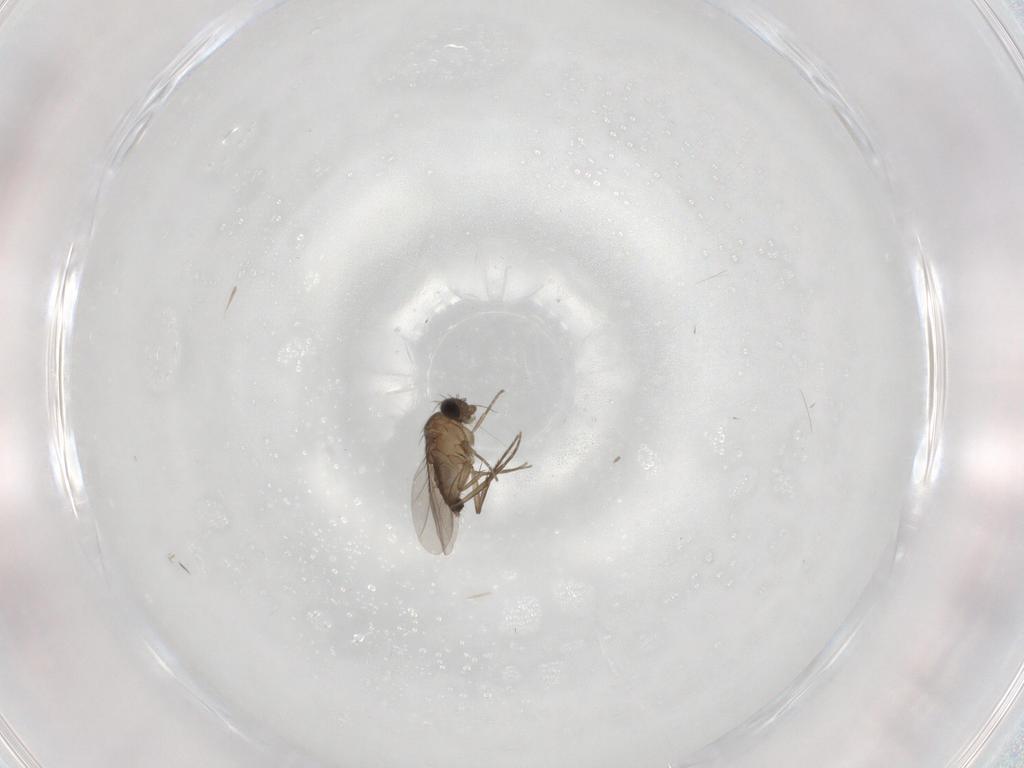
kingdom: Animalia
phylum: Arthropoda
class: Insecta
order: Diptera
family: Phoridae
